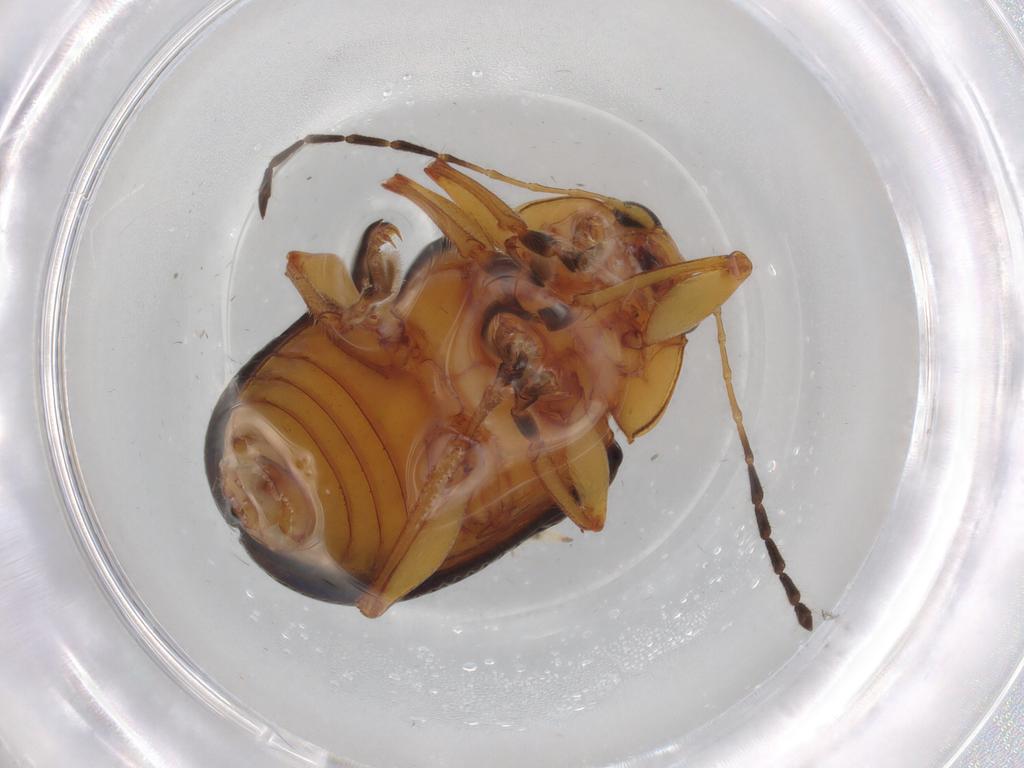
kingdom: Animalia
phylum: Arthropoda
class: Insecta
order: Coleoptera
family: Chrysomelidae
